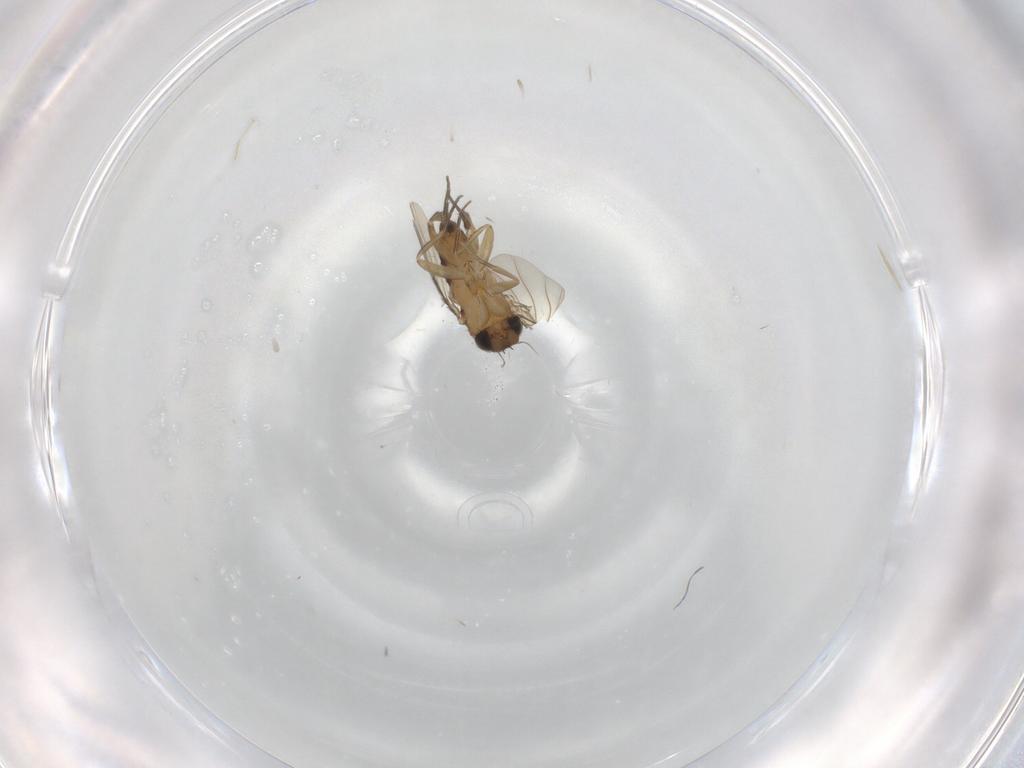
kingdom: Animalia
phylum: Arthropoda
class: Insecta
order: Diptera
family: Phoridae
